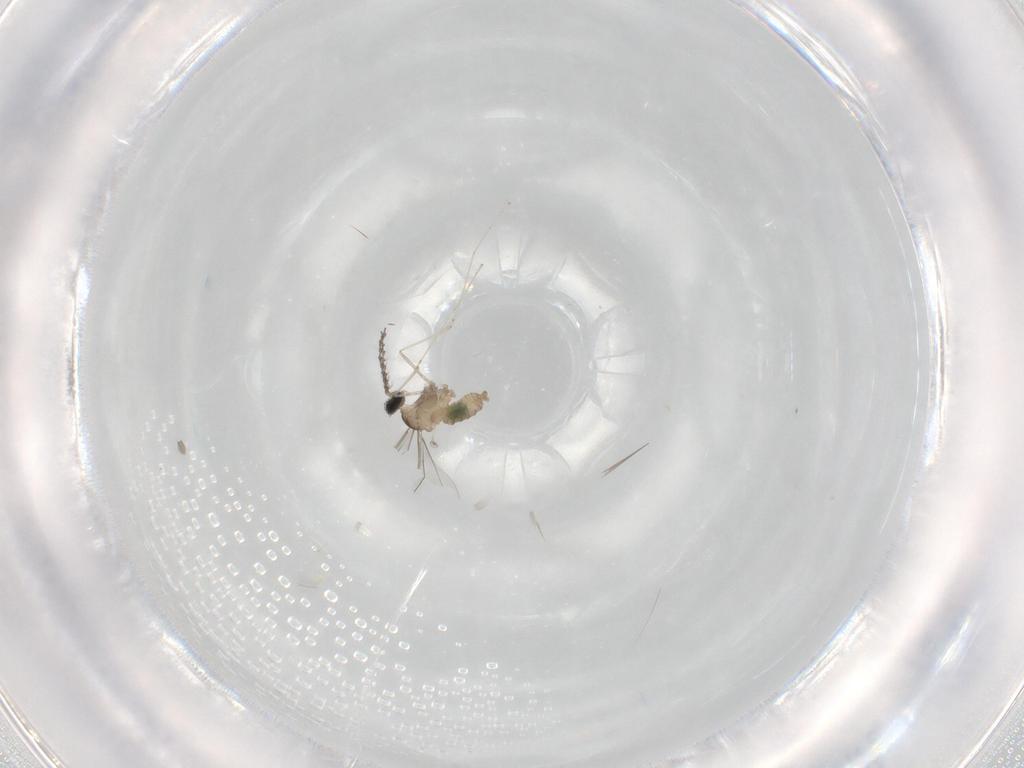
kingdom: Animalia
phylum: Arthropoda
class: Insecta
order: Diptera
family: Cecidomyiidae
